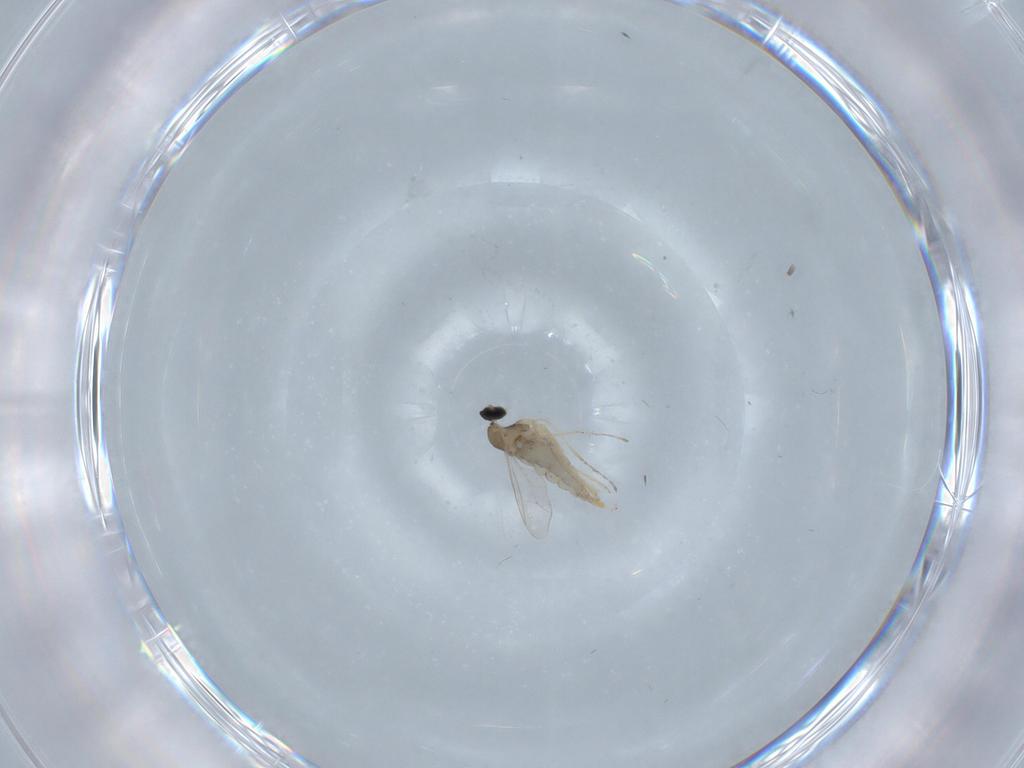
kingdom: Animalia
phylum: Arthropoda
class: Insecta
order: Diptera
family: Cecidomyiidae
